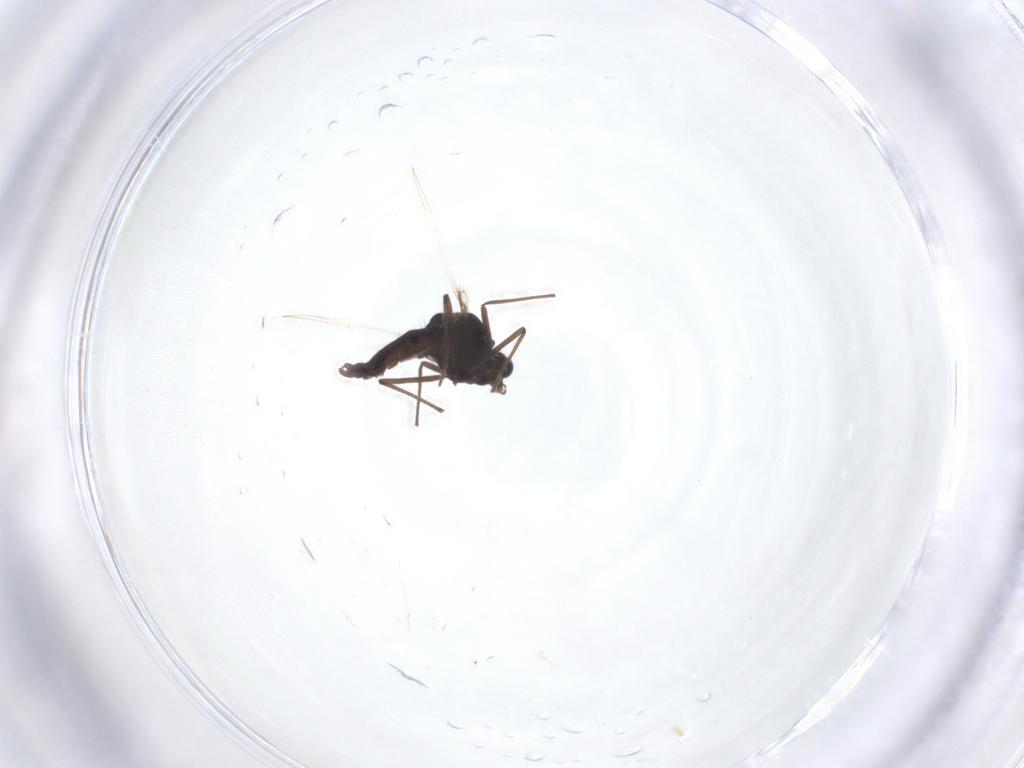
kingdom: Animalia
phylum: Arthropoda
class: Insecta
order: Diptera
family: Chironomidae
